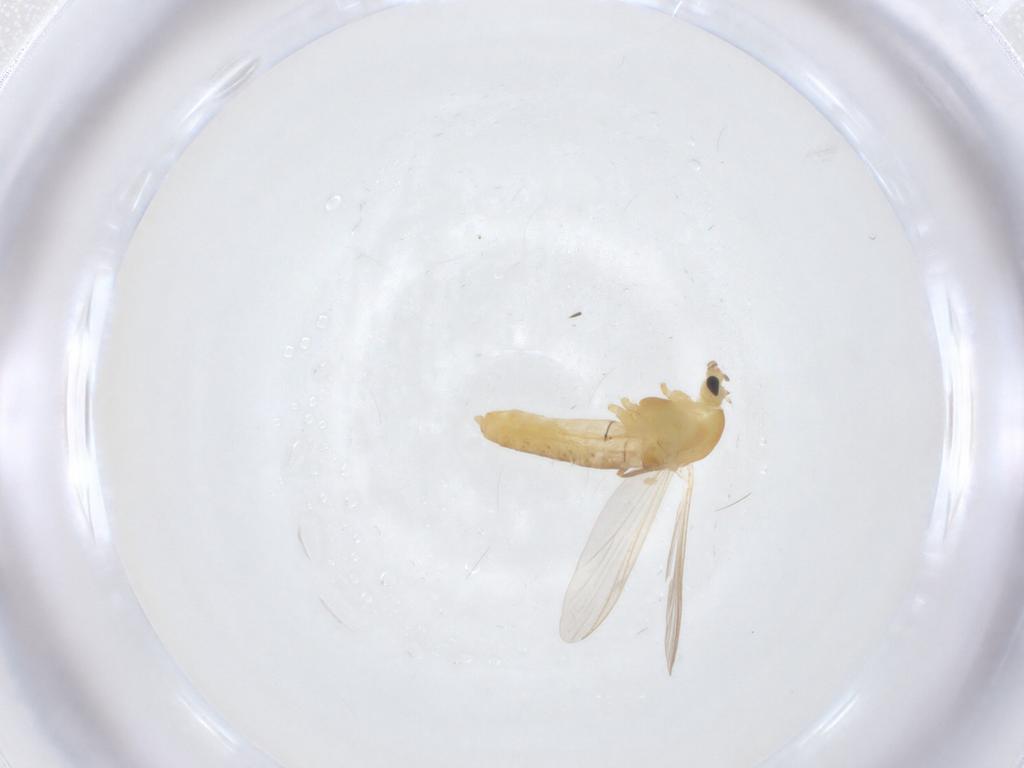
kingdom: Animalia
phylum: Arthropoda
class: Insecta
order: Diptera
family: Chironomidae
